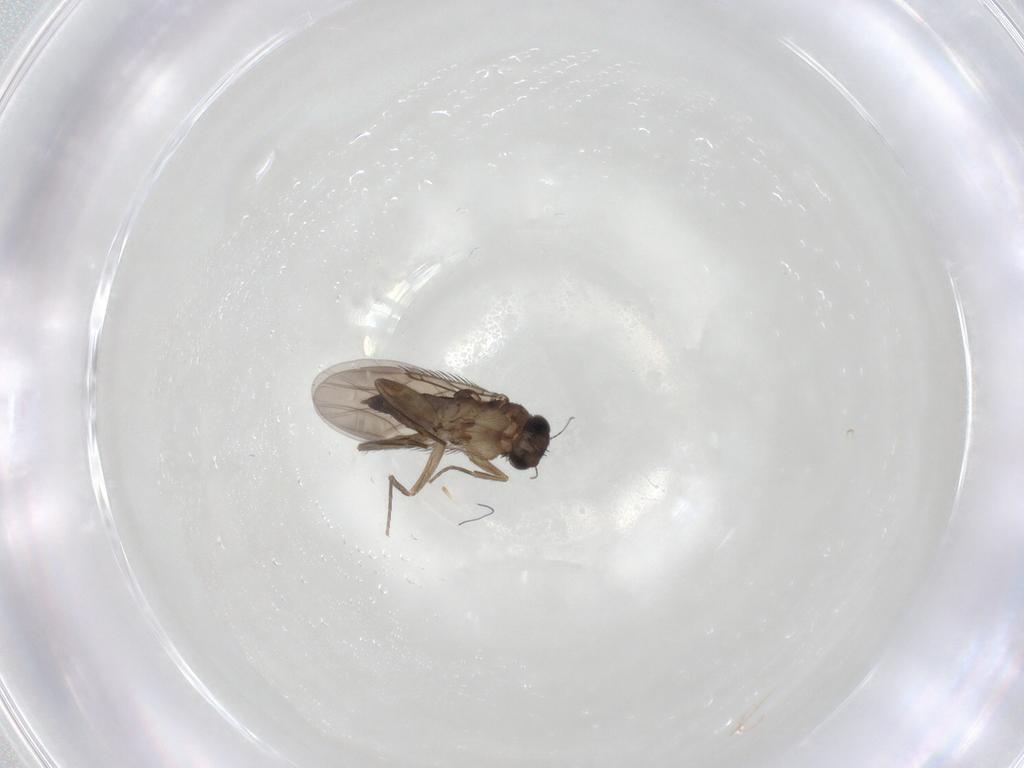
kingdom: Animalia
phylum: Arthropoda
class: Insecta
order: Diptera
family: Phoridae
